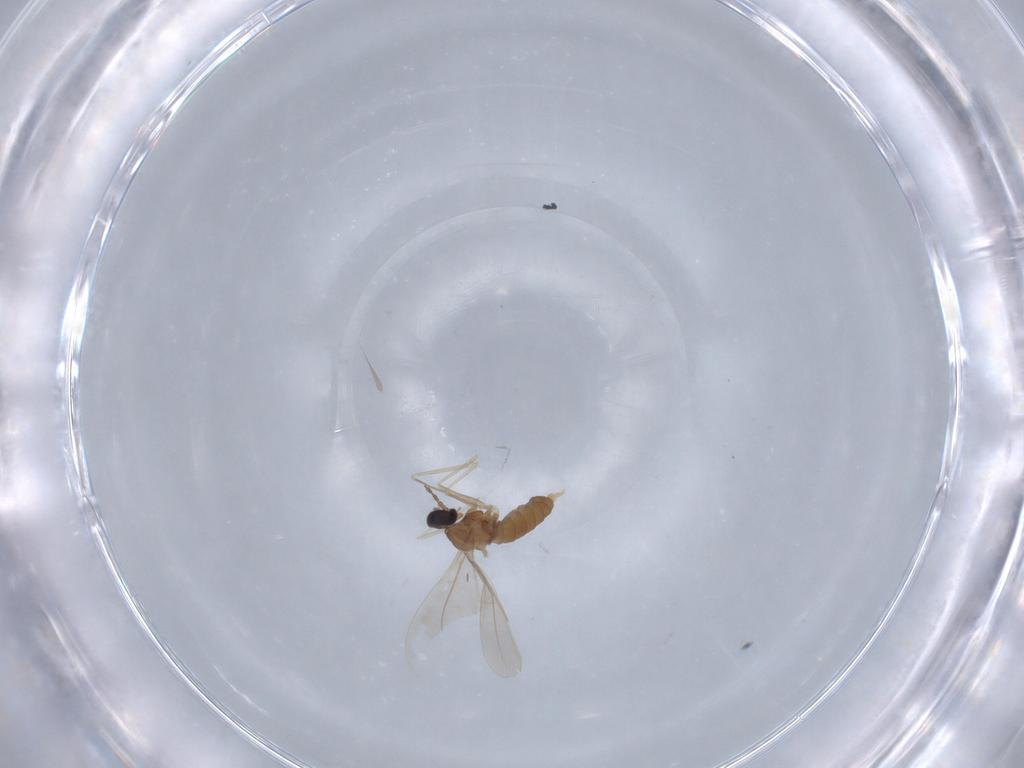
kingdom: Animalia
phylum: Arthropoda
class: Insecta
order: Diptera
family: Cecidomyiidae
